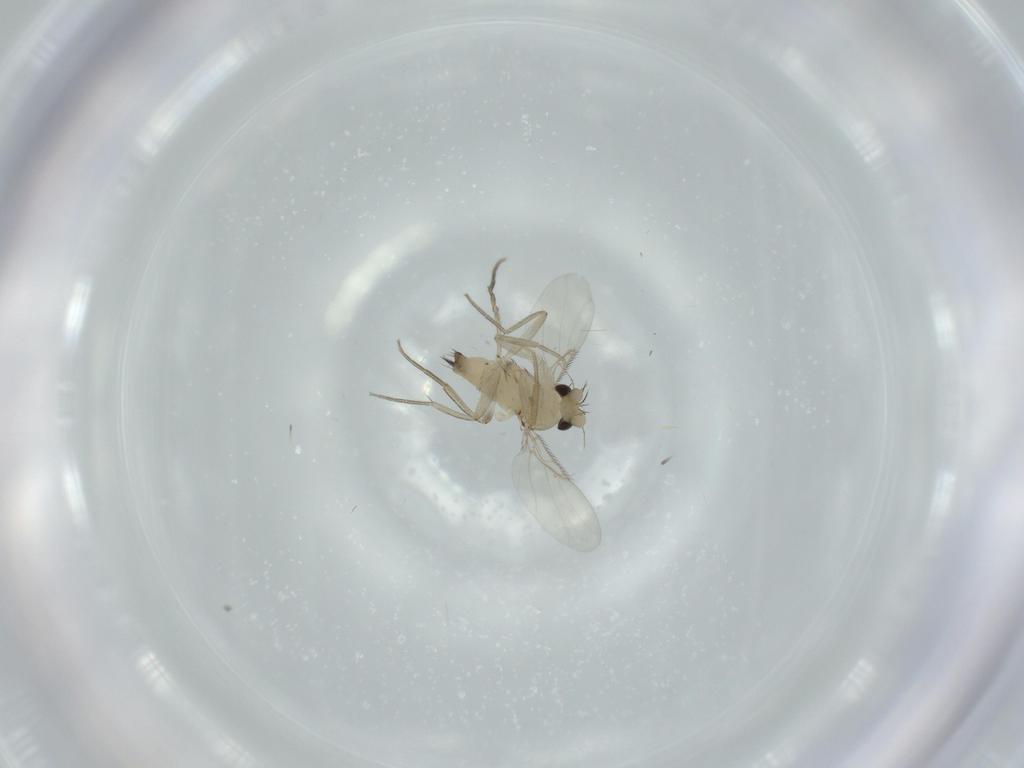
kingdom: Animalia
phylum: Arthropoda
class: Insecta
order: Diptera
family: Phoridae
